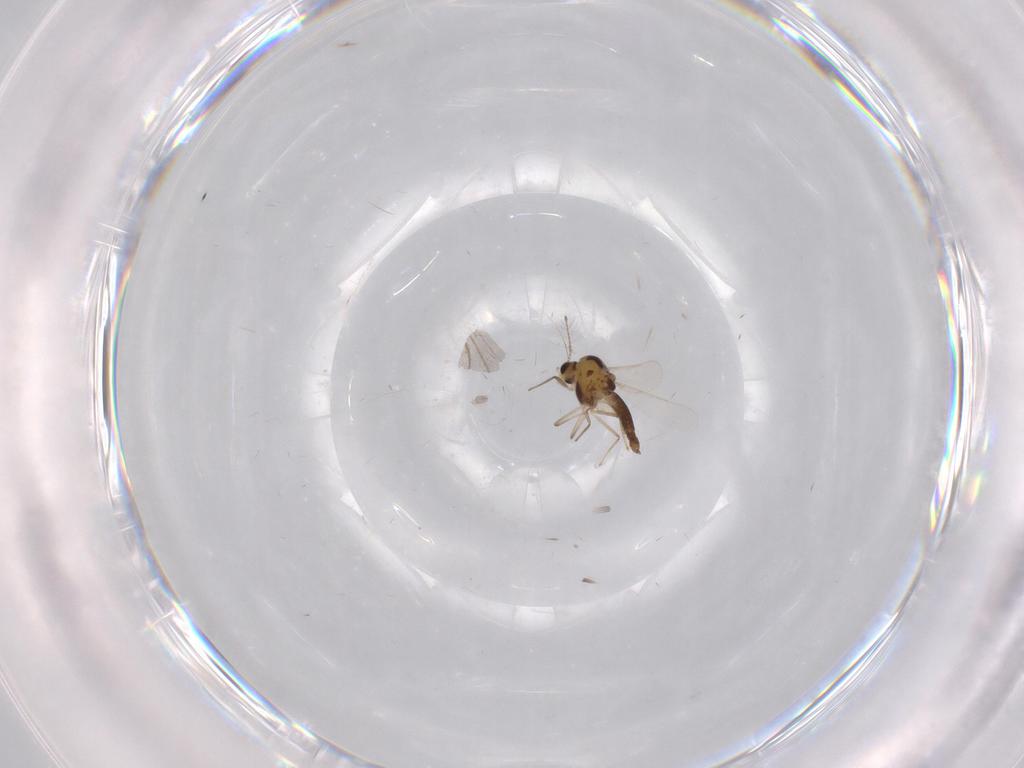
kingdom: Animalia
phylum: Arthropoda
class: Insecta
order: Diptera
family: Chironomidae
